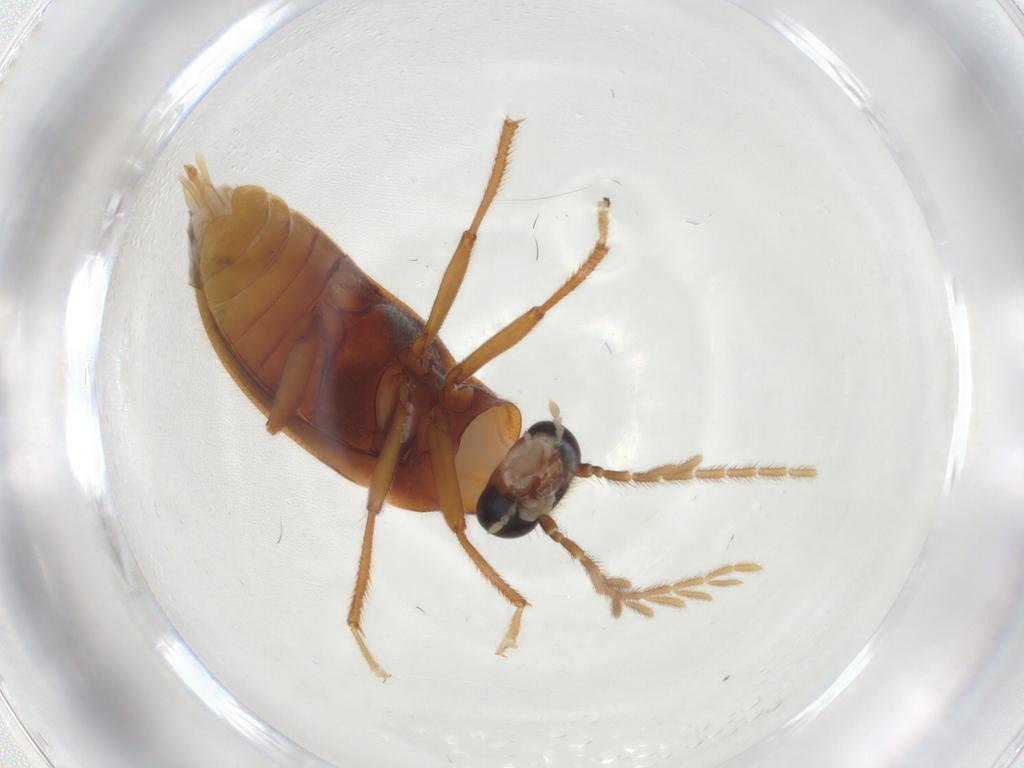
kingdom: Animalia
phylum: Arthropoda
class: Insecta
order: Coleoptera
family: Ptilodactylidae
